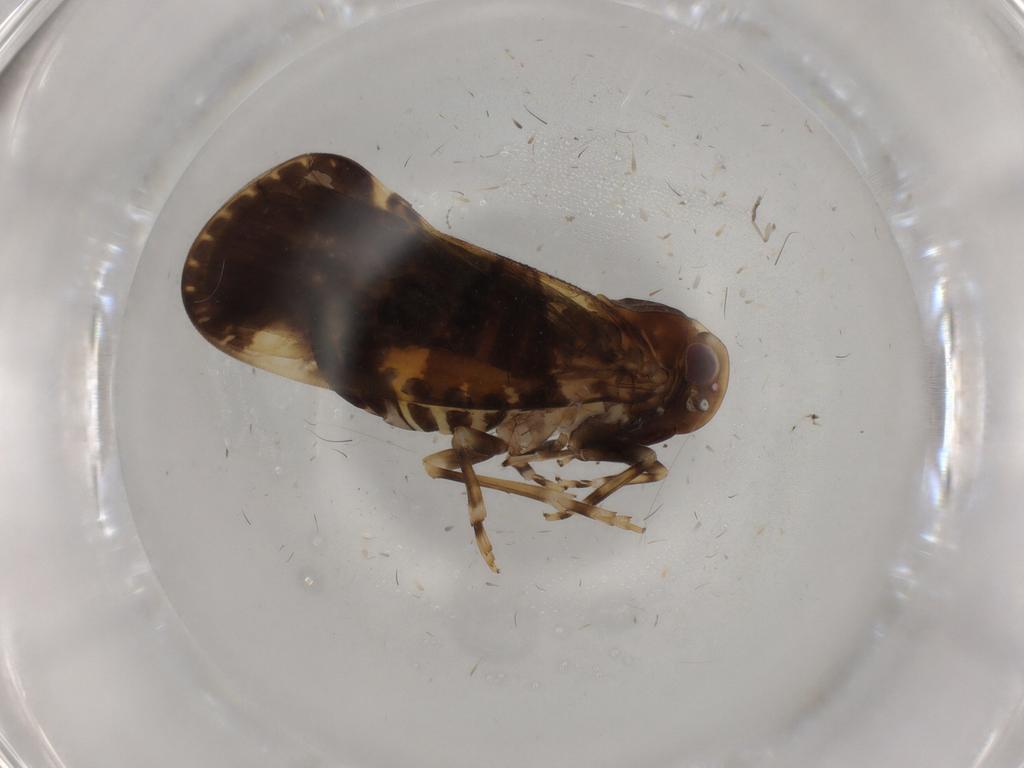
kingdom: Animalia
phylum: Arthropoda
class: Insecta
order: Hemiptera
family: Cixiidae
